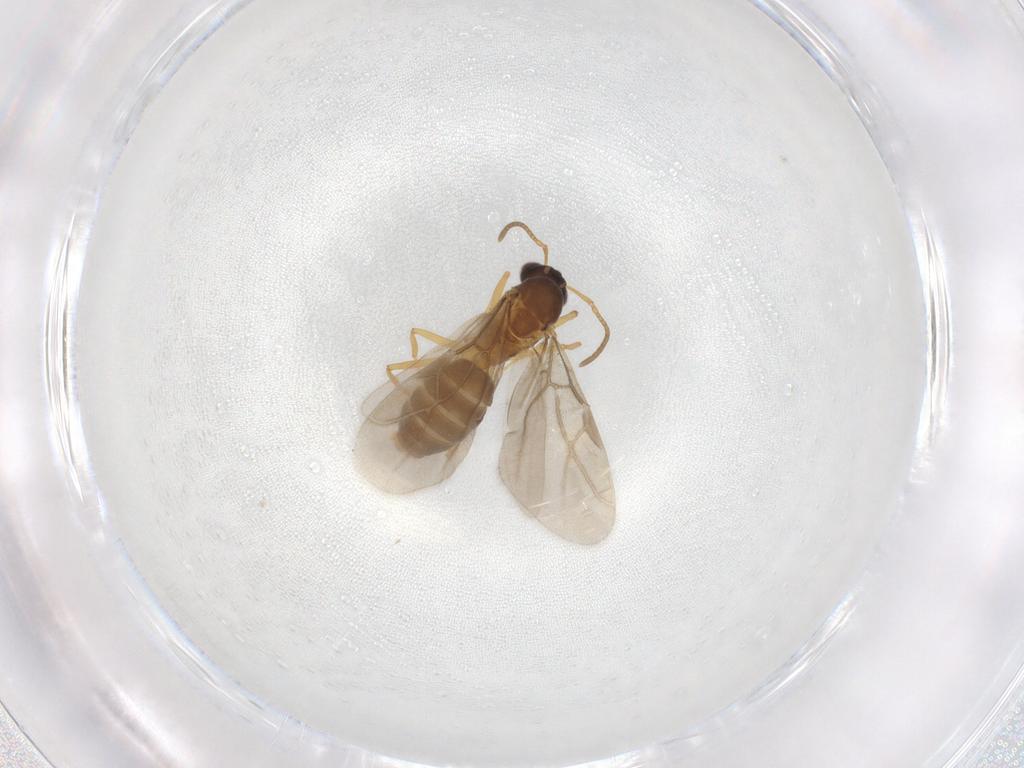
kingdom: Animalia
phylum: Arthropoda
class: Insecta
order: Hymenoptera
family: Formicidae
